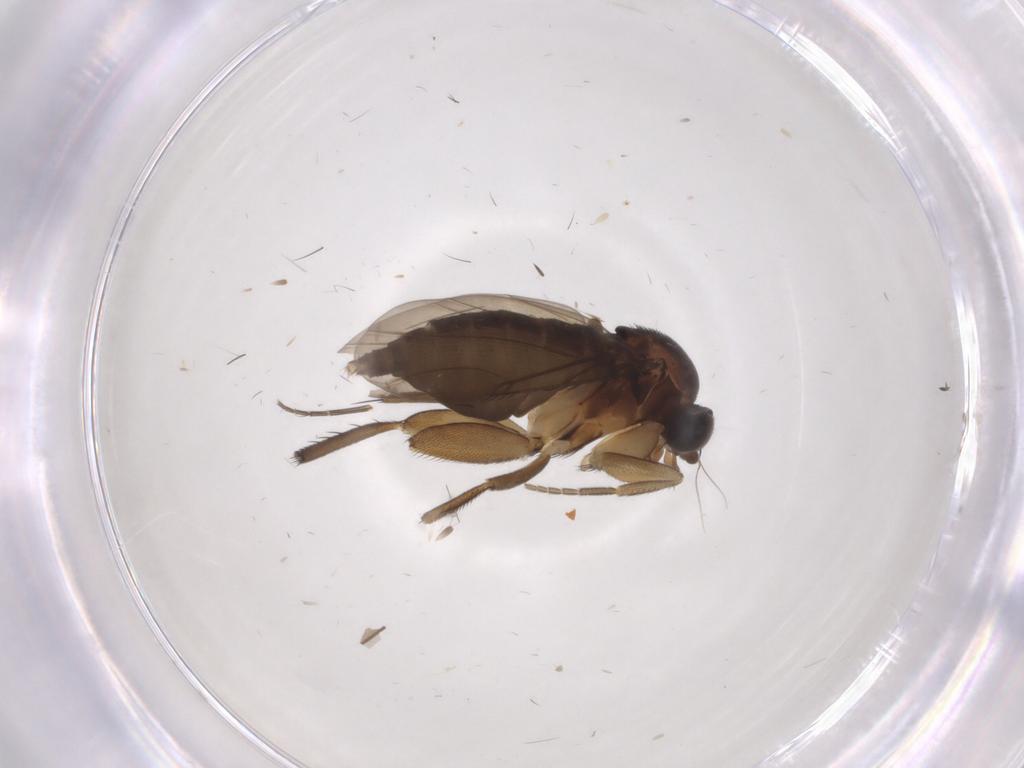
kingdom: Animalia
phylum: Arthropoda
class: Insecta
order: Diptera
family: Phoridae
